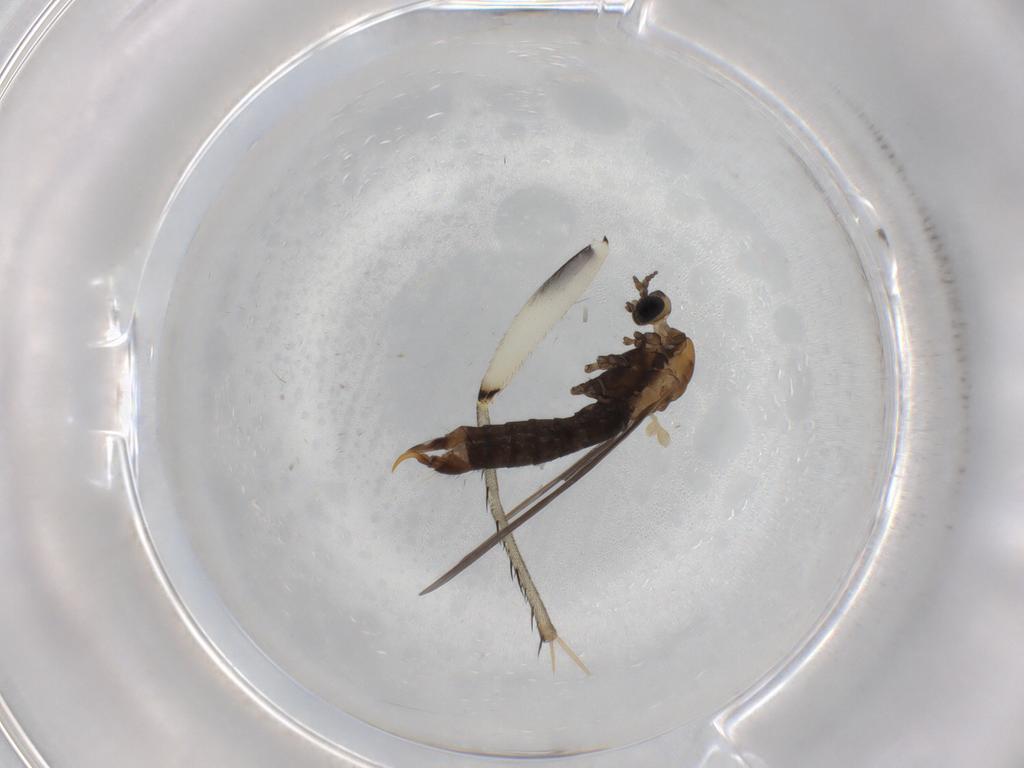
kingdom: Animalia
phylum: Arthropoda
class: Insecta
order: Diptera
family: Limoniidae
